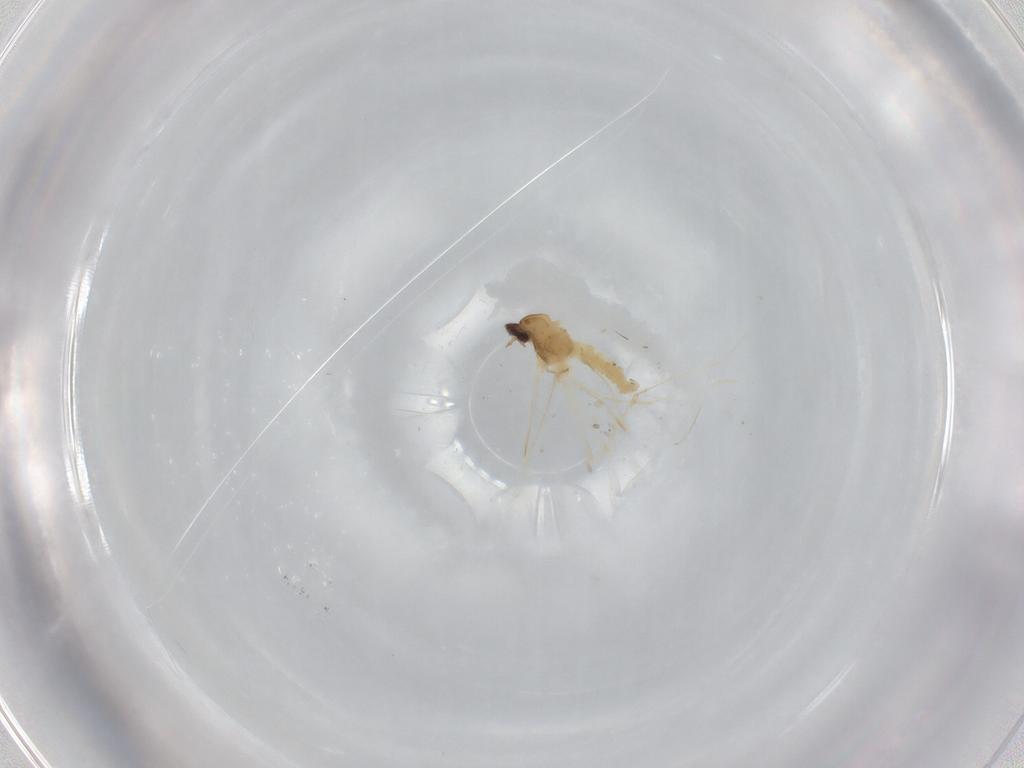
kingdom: Animalia
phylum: Arthropoda
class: Insecta
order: Diptera
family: Cecidomyiidae
